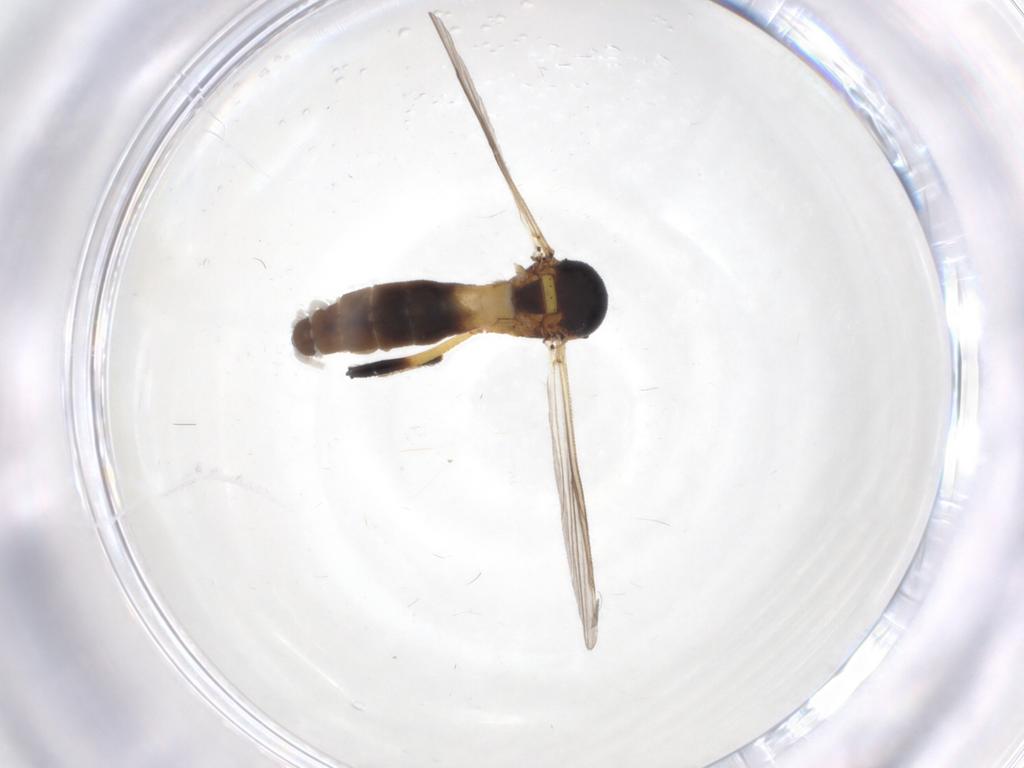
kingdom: Animalia
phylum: Arthropoda
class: Insecta
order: Diptera
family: Ceratopogonidae
